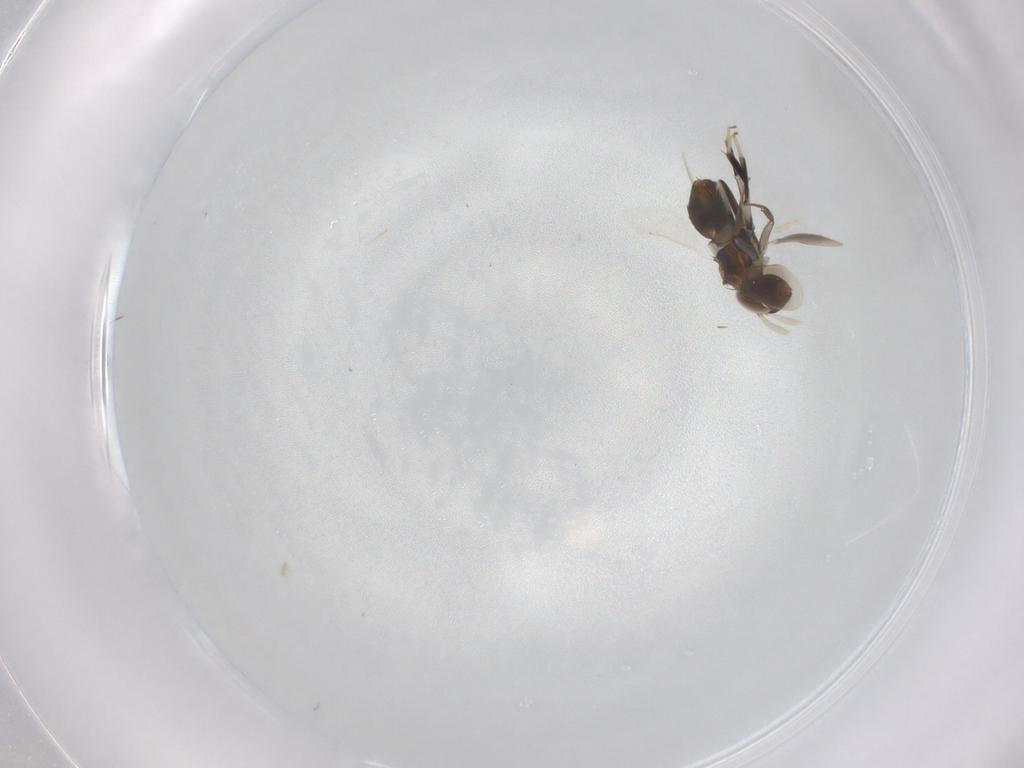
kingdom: Animalia
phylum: Arthropoda
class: Insecta
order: Hymenoptera
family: Aphelinidae
